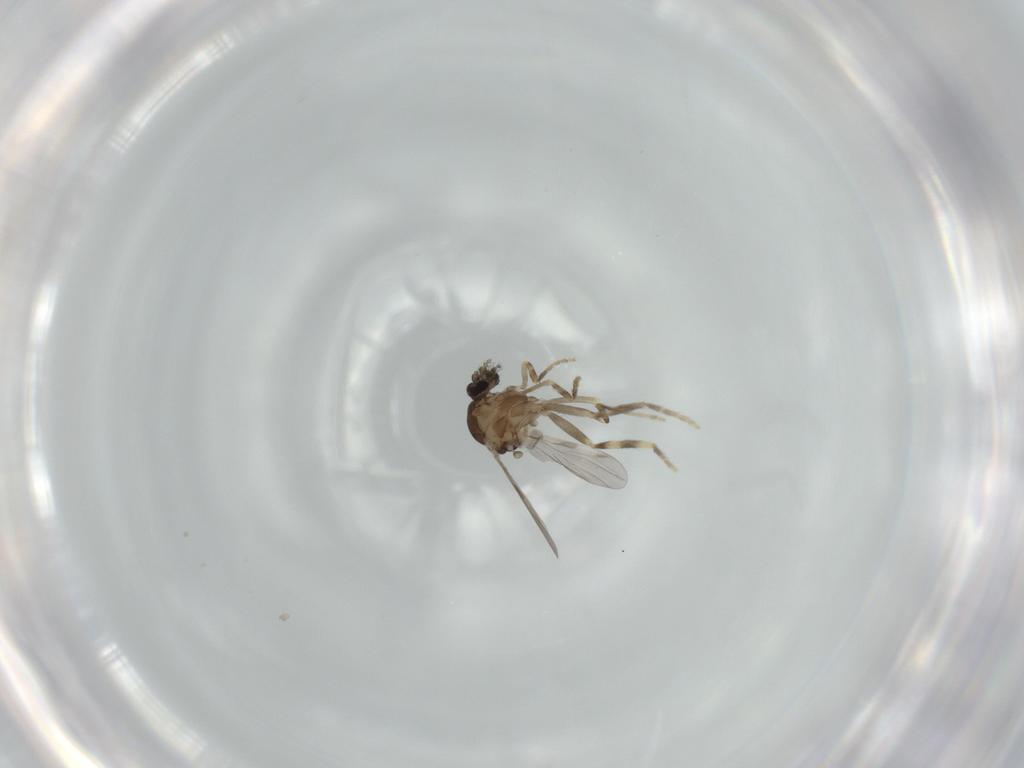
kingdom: Animalia
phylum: Arthropoda
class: Insecta
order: Diptera
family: Ceratopogonidae
